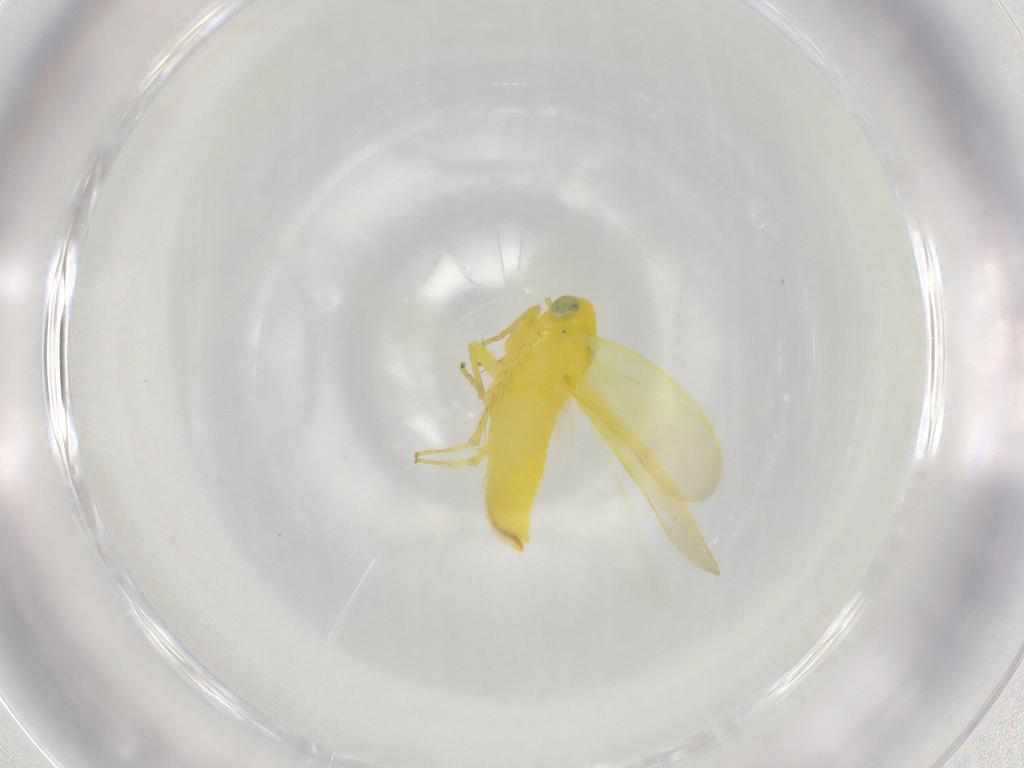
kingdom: Animalia
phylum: Arthropoda
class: Insecta
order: Hemiptera
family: Cicadellidae
